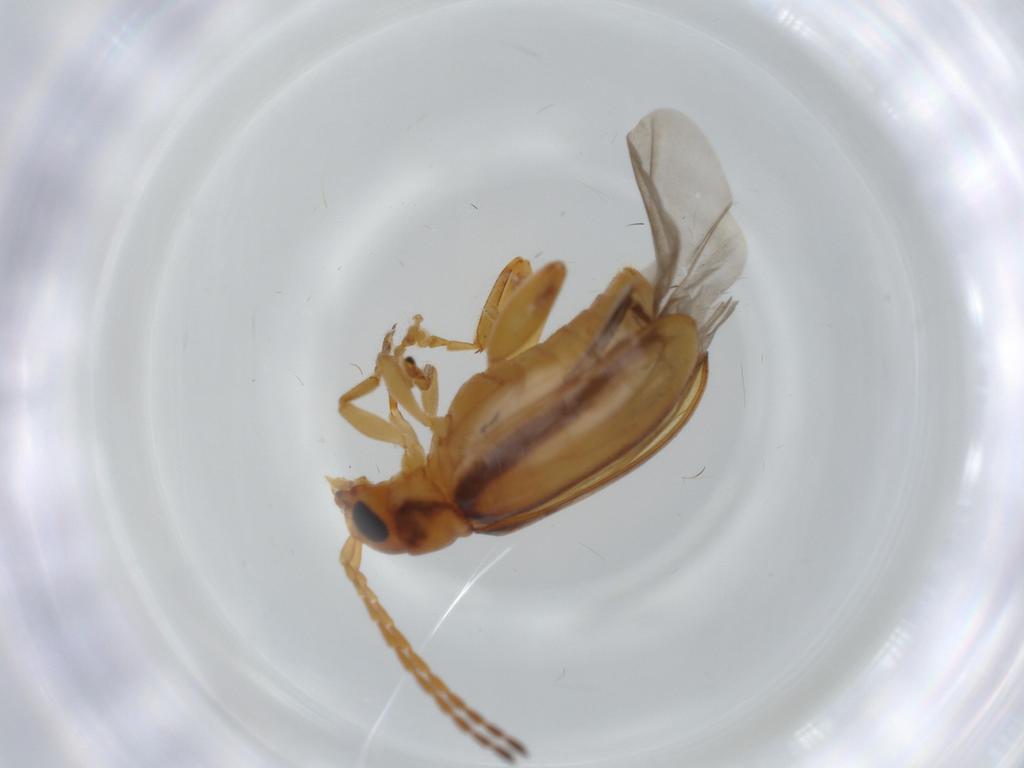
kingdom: Animalia
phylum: Arthropoda
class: Insecta
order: Coleoptera
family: Chrysomelidae
